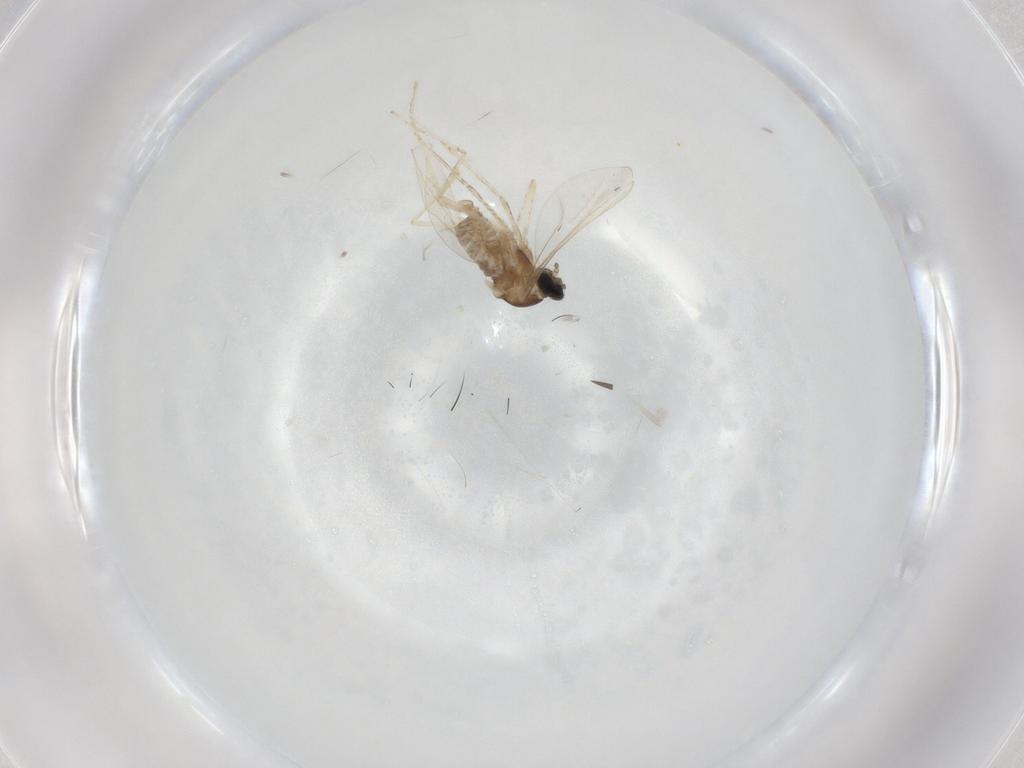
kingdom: Animalia
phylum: Arthropoda
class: Insecta
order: Diptera
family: Cecidomyiidae
